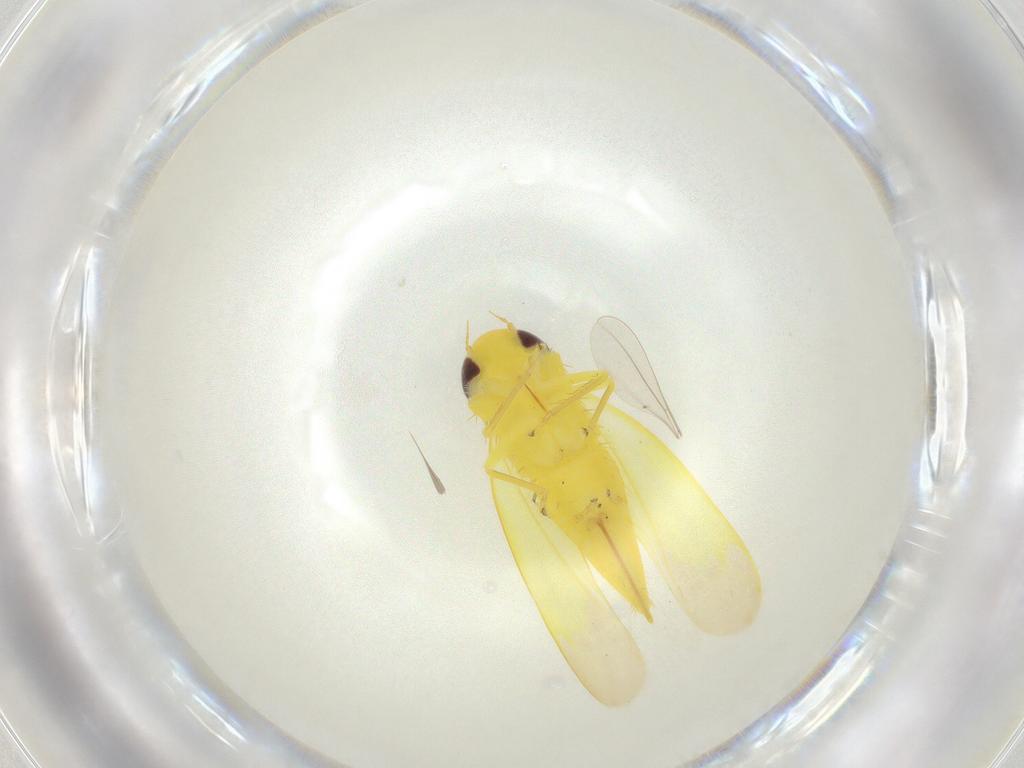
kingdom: Animalia
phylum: Arthropoda
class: Insecta
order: Hemiptera
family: Cicadellidae
